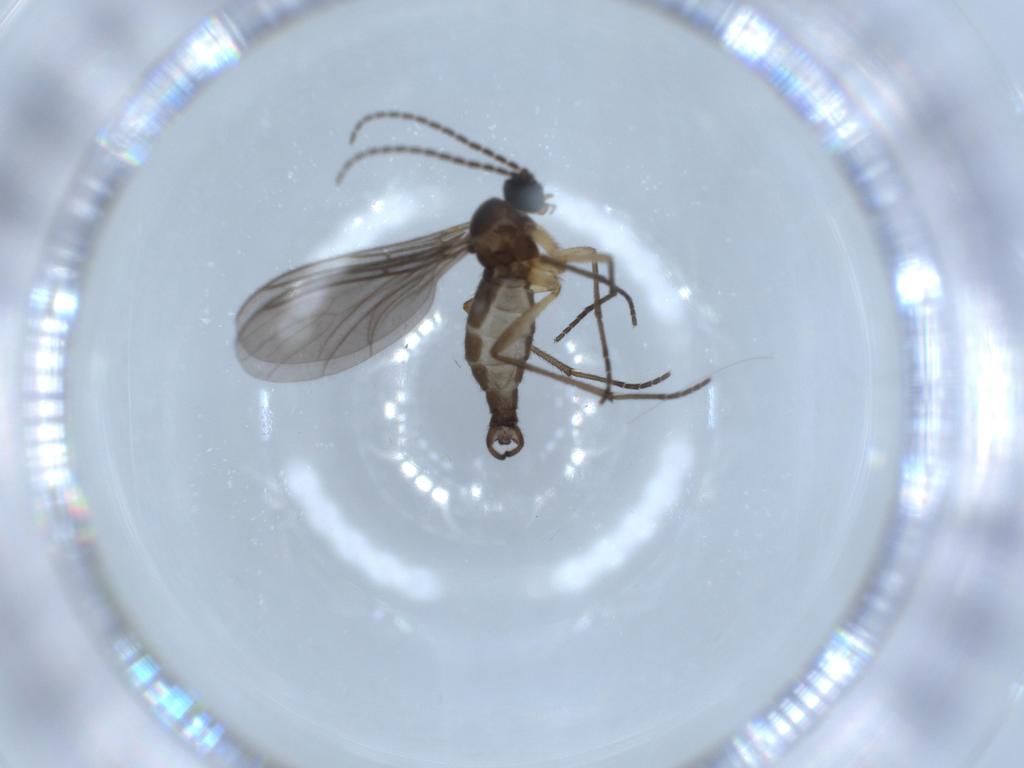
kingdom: Animalia
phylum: Arthropoda
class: Insecta
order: Diptera
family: Sciaridae
